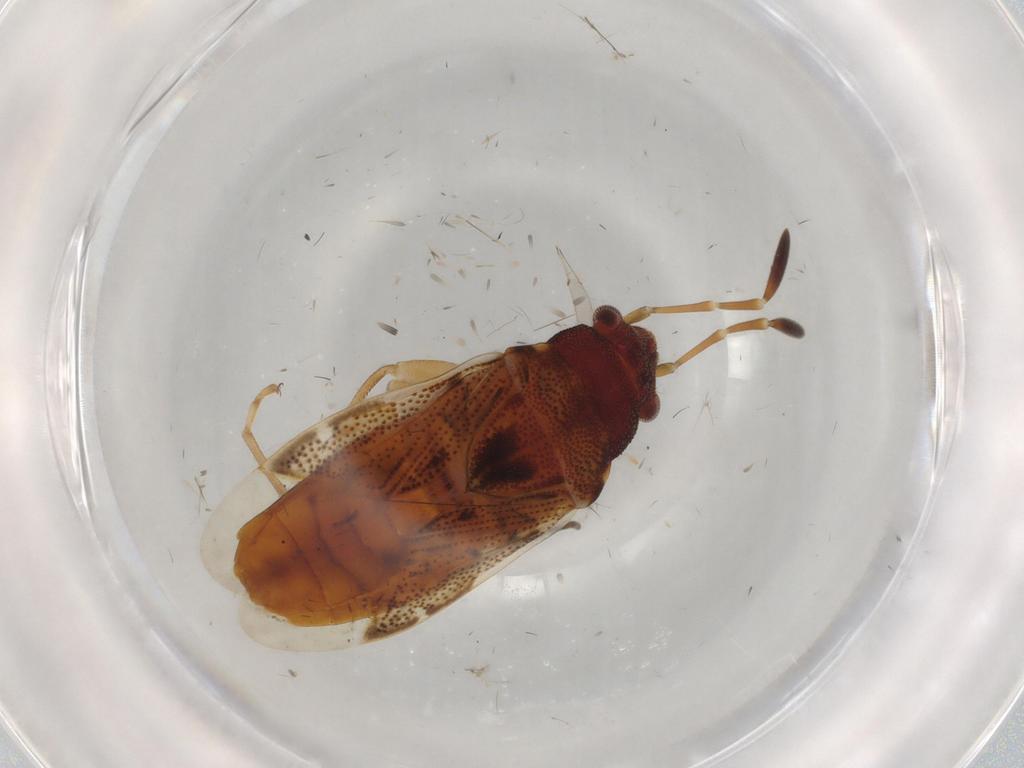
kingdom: Animalia
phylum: Arthropoda
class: Insecta
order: Hemiptera
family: Rhyparochromidae
